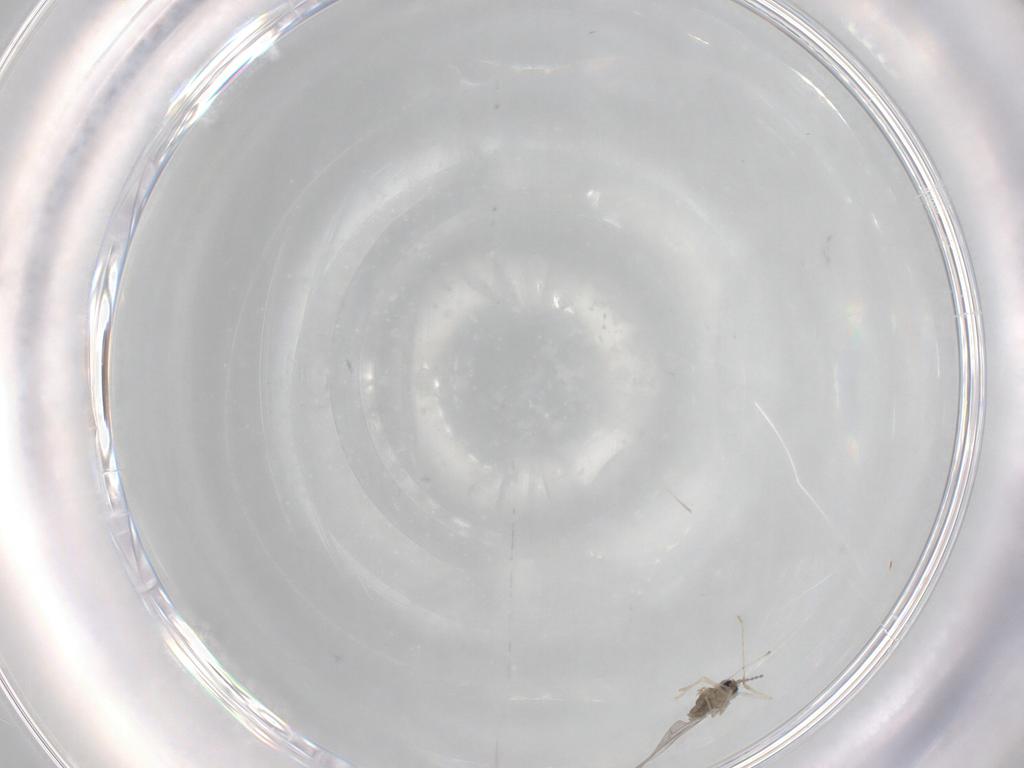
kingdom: Animalia
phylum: Arthropoda
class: Insecta
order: Diptera
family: Cecidomyiidae
